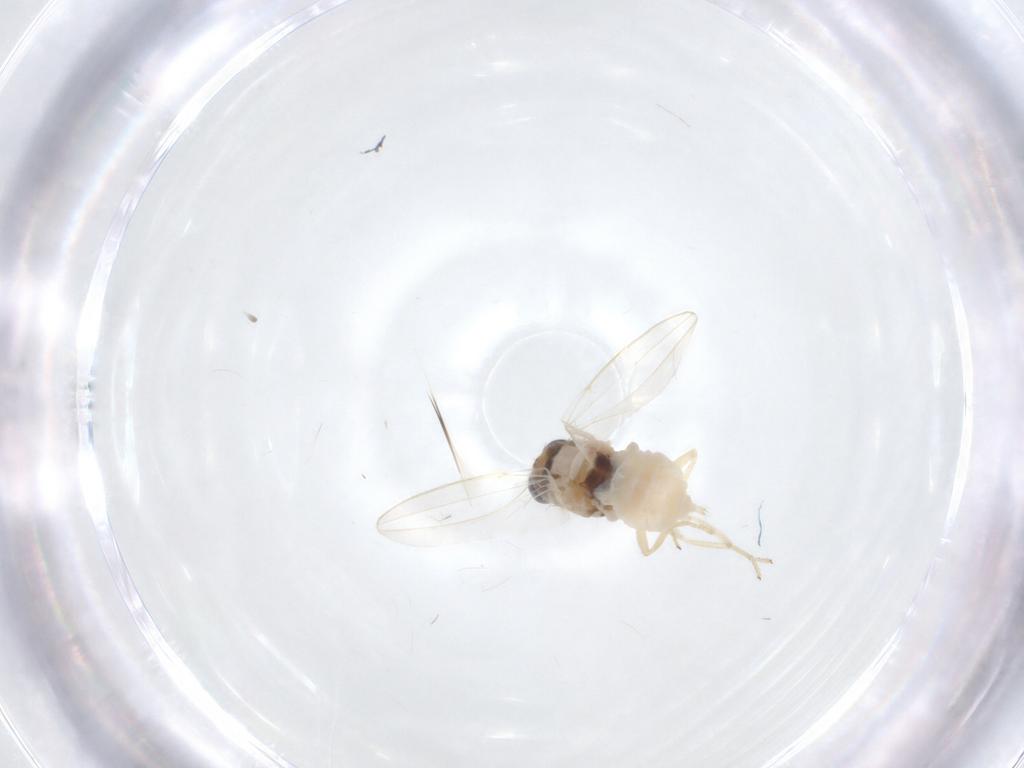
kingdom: Animalia
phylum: Arthropoda
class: Insecta
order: Diptera
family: Chloropidae
